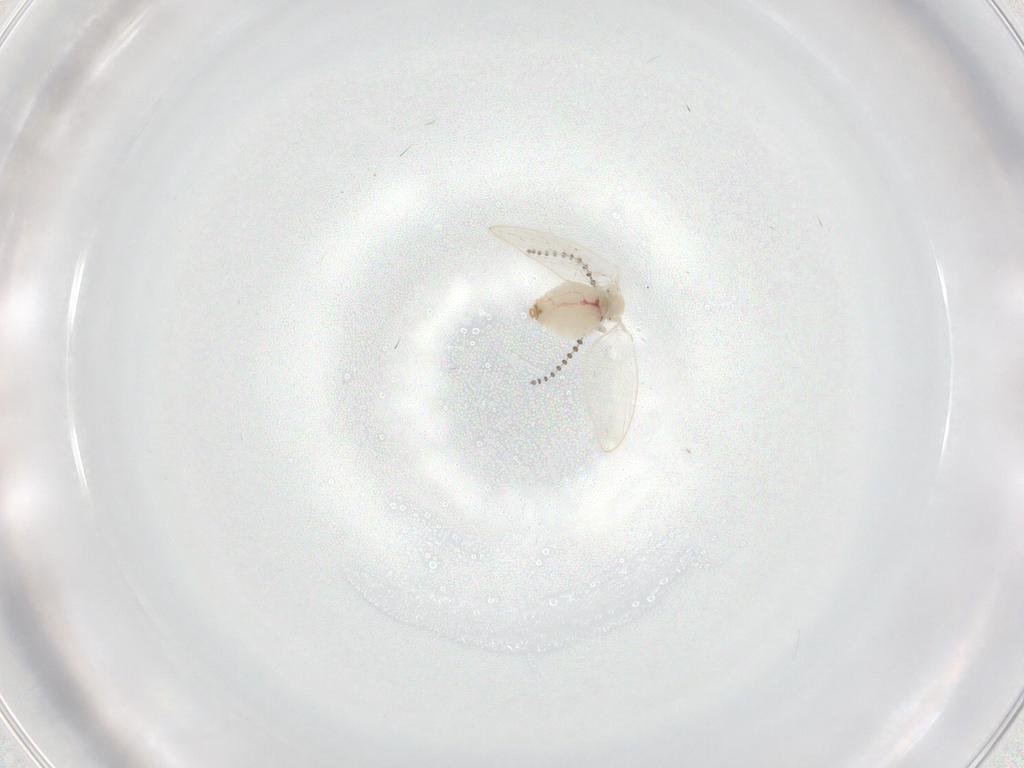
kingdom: Animalia
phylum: Arthropoda
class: Insecta
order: Diptera
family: Psychodidae
